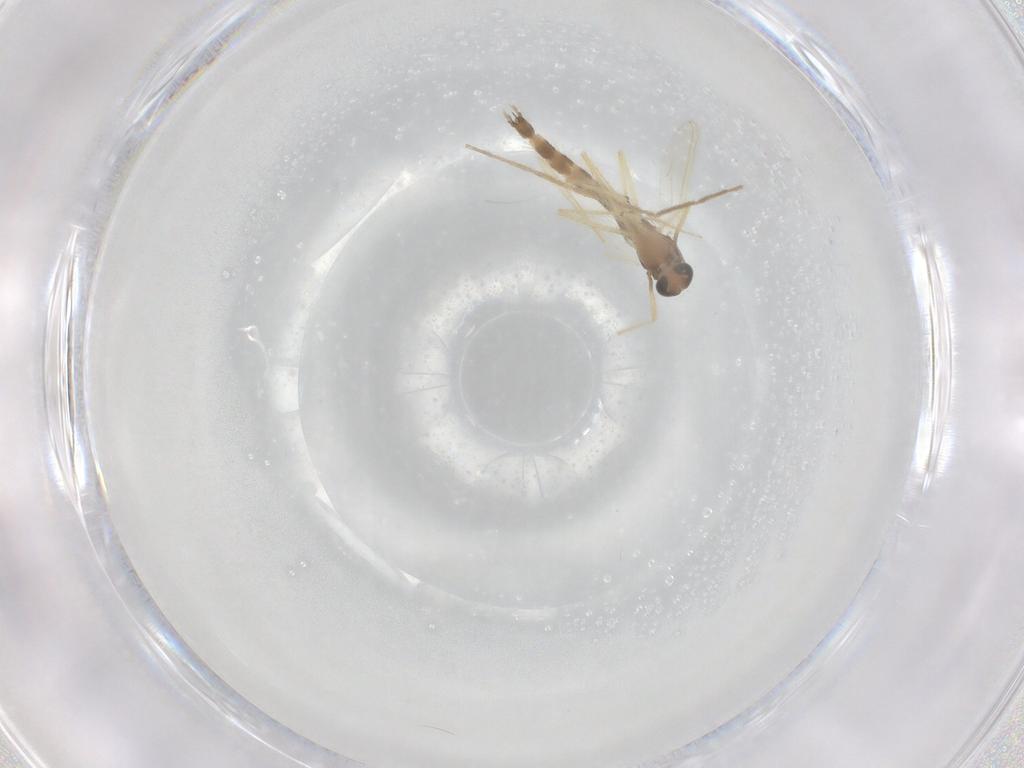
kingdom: Animalia
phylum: Arthropoda
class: Insecta
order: Diptera
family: Chironomidae
